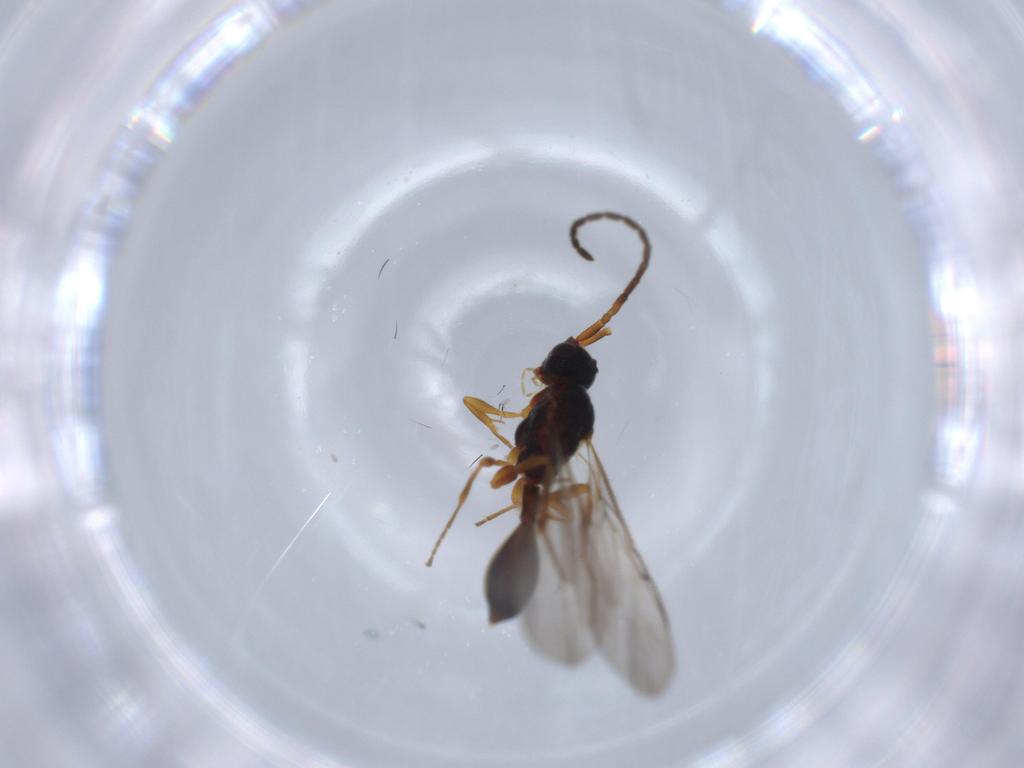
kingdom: Animalia
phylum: Arthropoda
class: Insecta
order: Hymenoptera
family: Diapriidae
